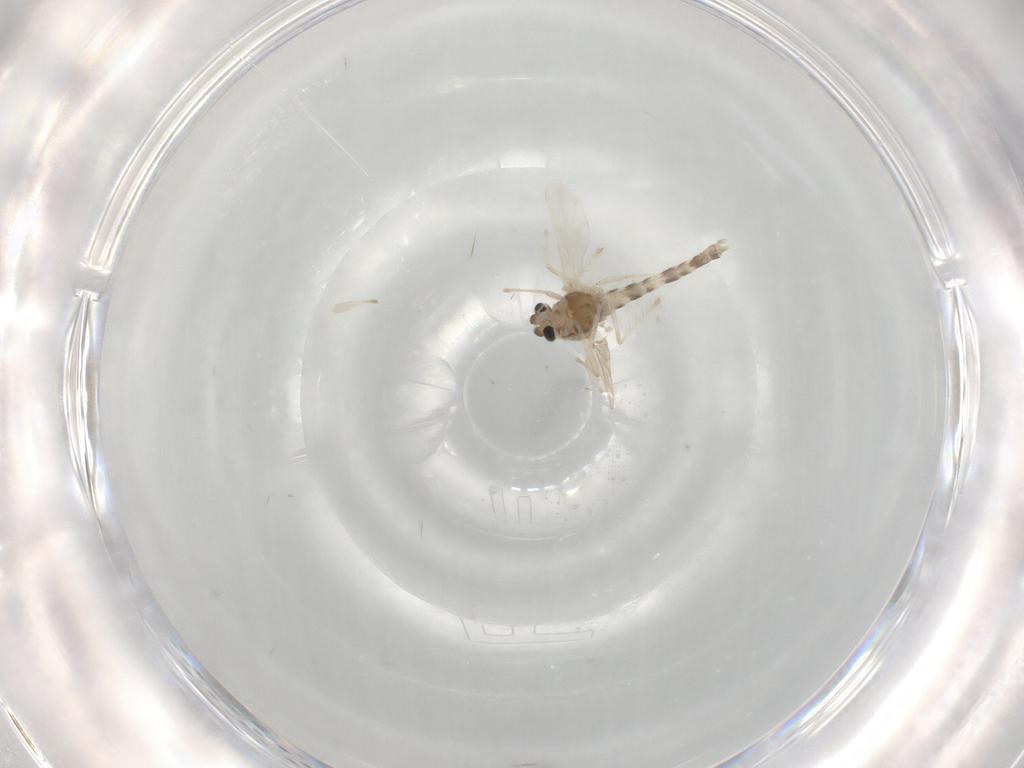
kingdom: Animalia
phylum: Arthropoda
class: Insecta
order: Diptera
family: Chironomidae
